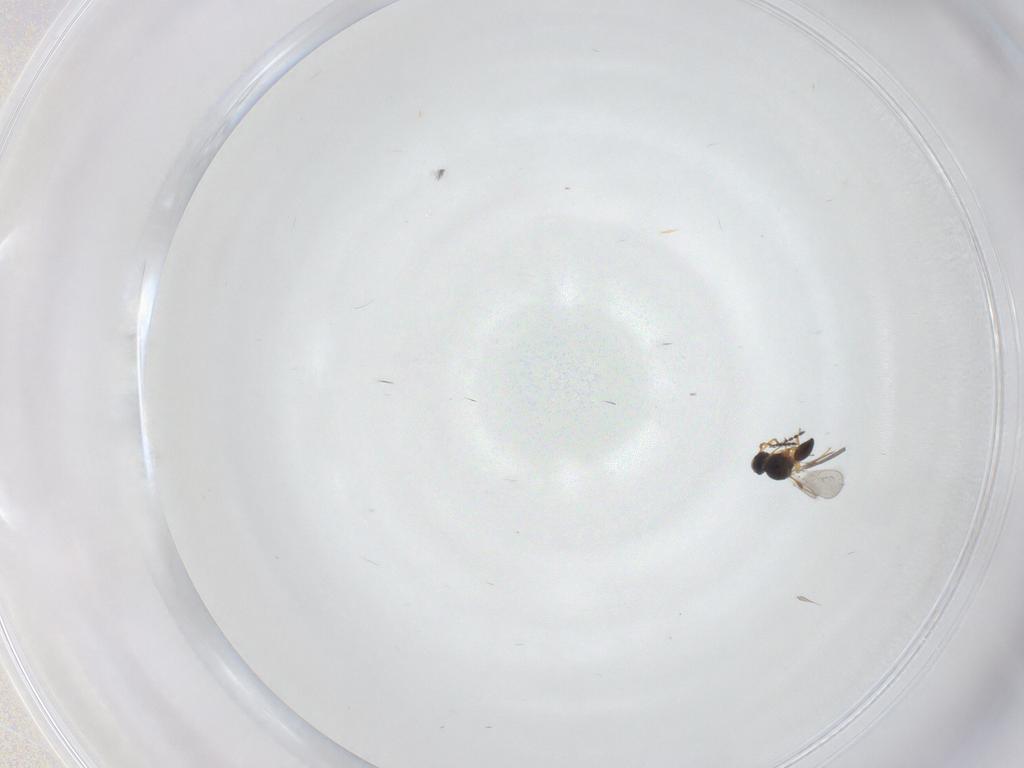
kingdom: Animalia
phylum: Arthropoda
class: Insecta
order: Hymenoptera
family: Platygastridae
